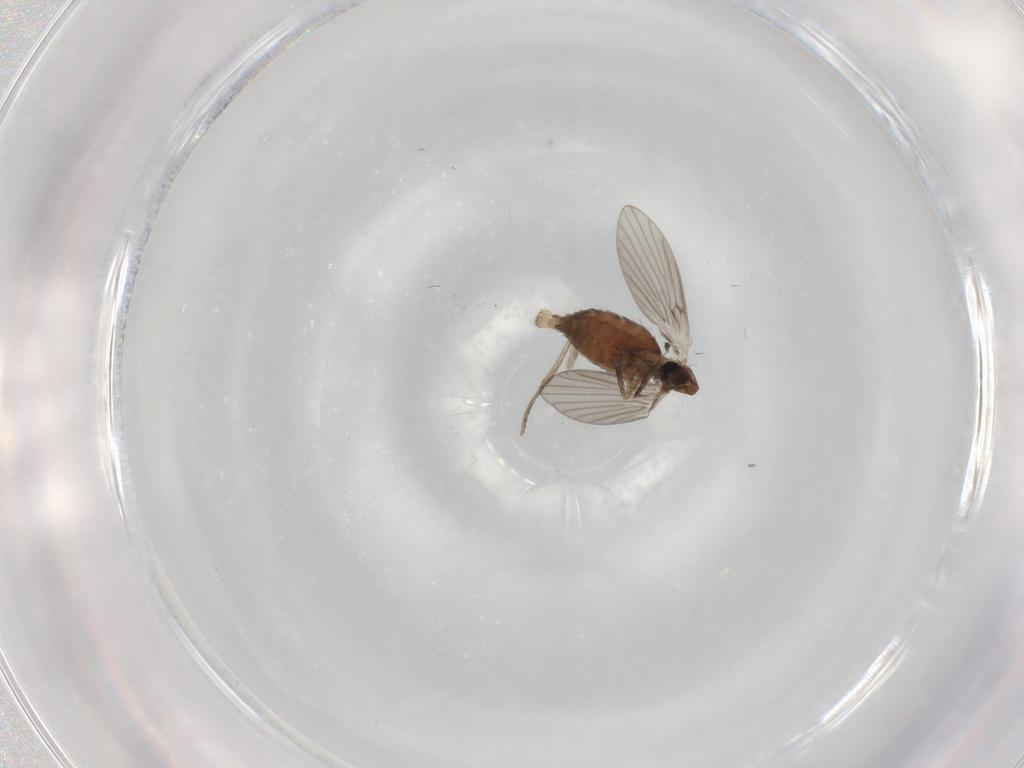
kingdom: Animalia
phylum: Arthropoda
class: Insecta
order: Diptera
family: Psychodidae
